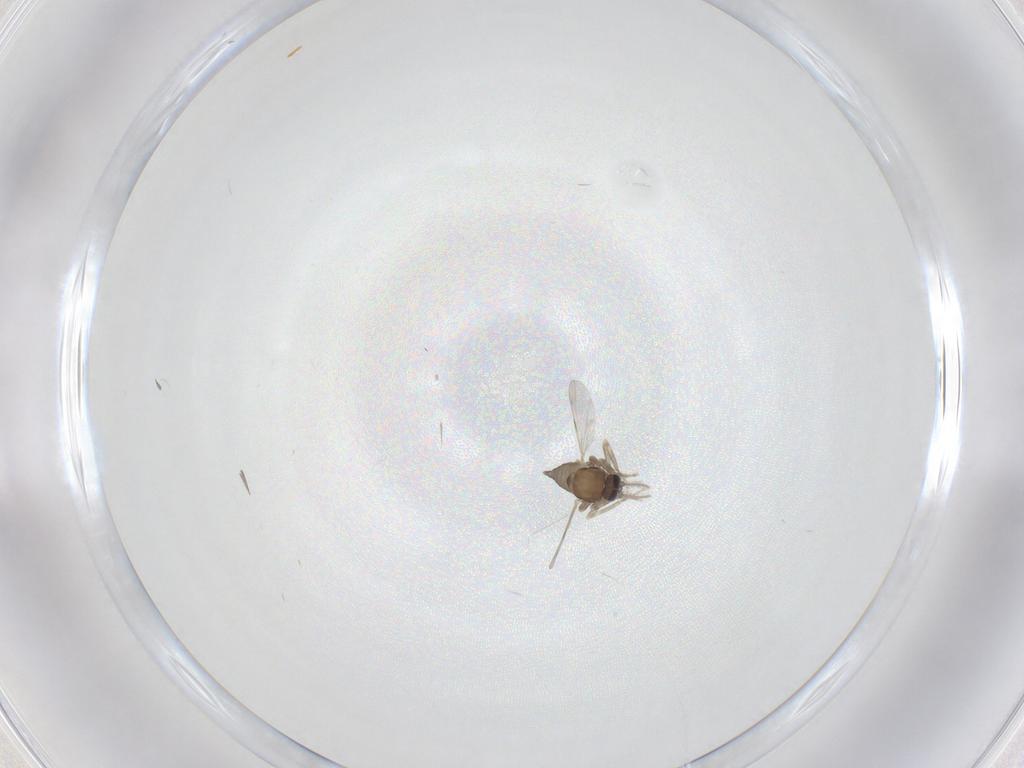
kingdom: Animalia
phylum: Arthropoda
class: Insecta
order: Diptera
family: Ceratopogonidae
